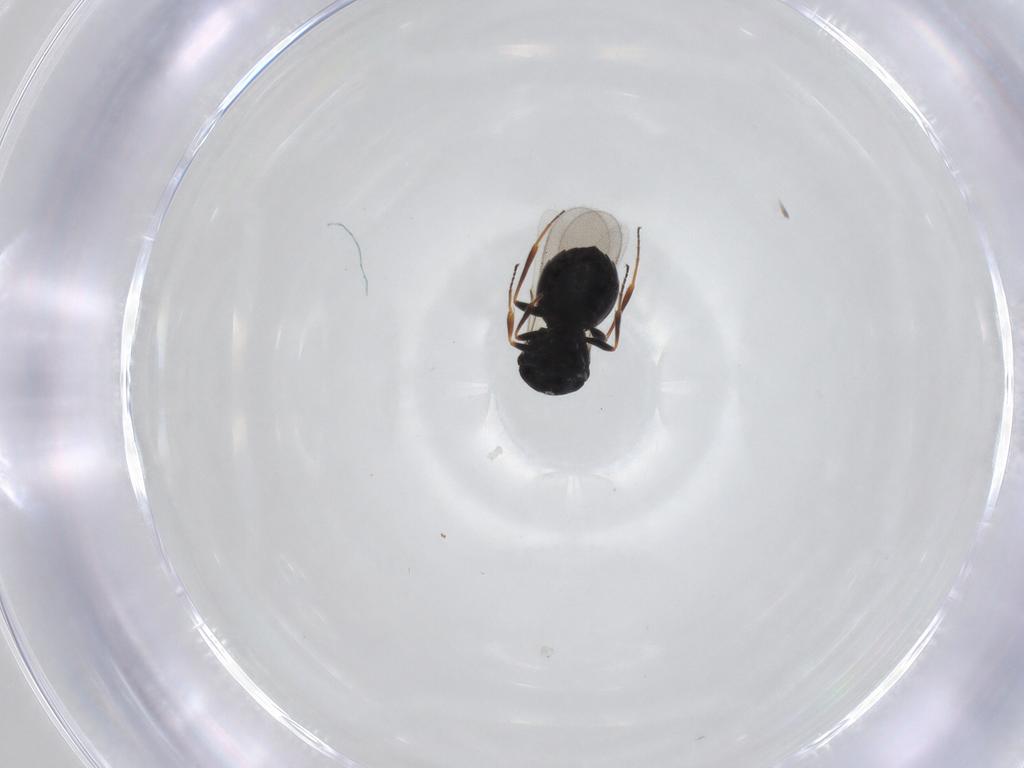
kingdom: Animalia
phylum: Arthropoda
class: Insecta
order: Hymenoptera
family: Scelionidae
